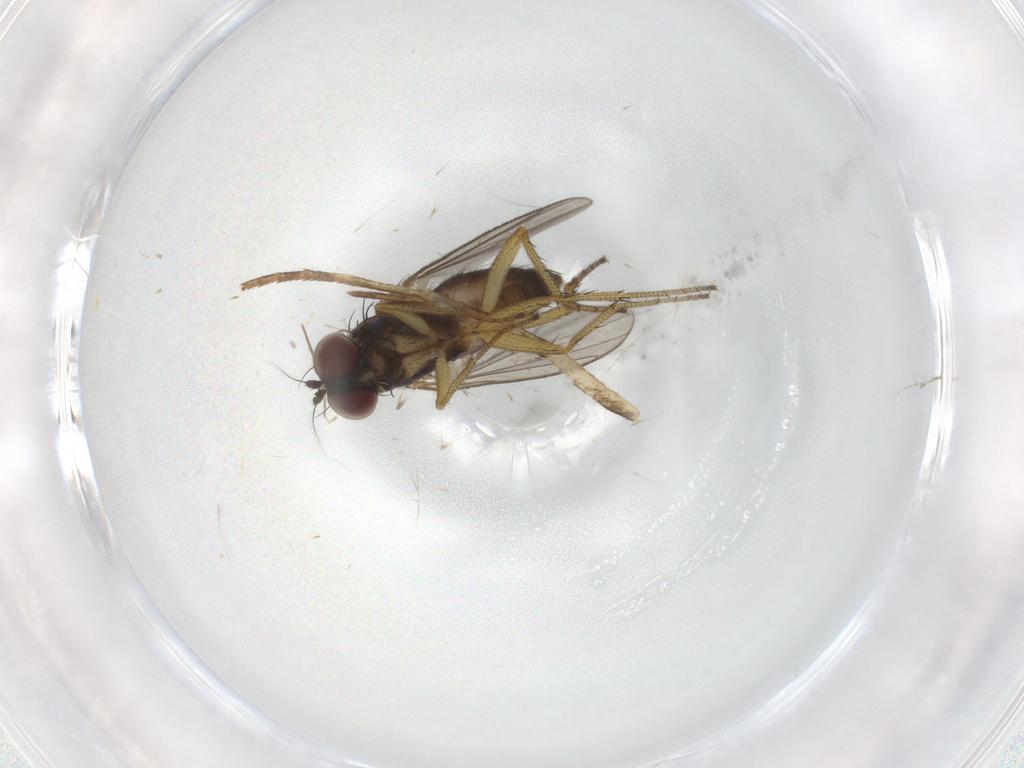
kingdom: Animalia
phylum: Arthropoda
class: Insecta
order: Diptera
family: Chironomidae
